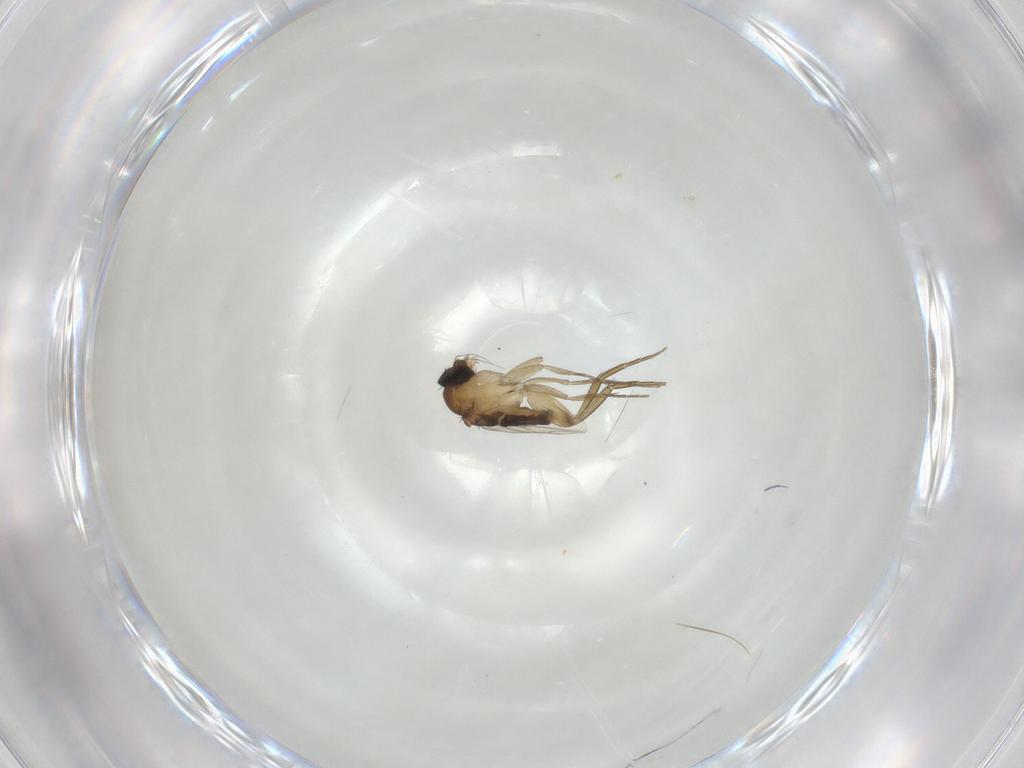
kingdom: Animalia
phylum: Arthropoda
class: Insecta
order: Diptera
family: Phoridae
